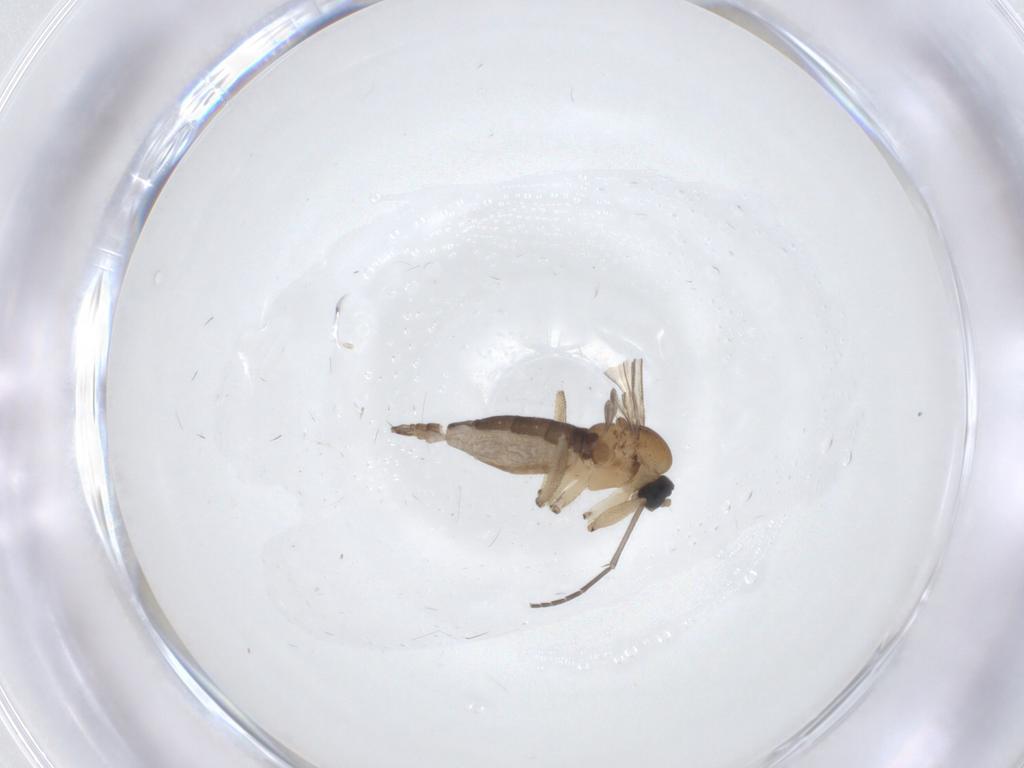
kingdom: Animalia
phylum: Arthropoda
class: Insecta
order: Diptera
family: Sciaridae
